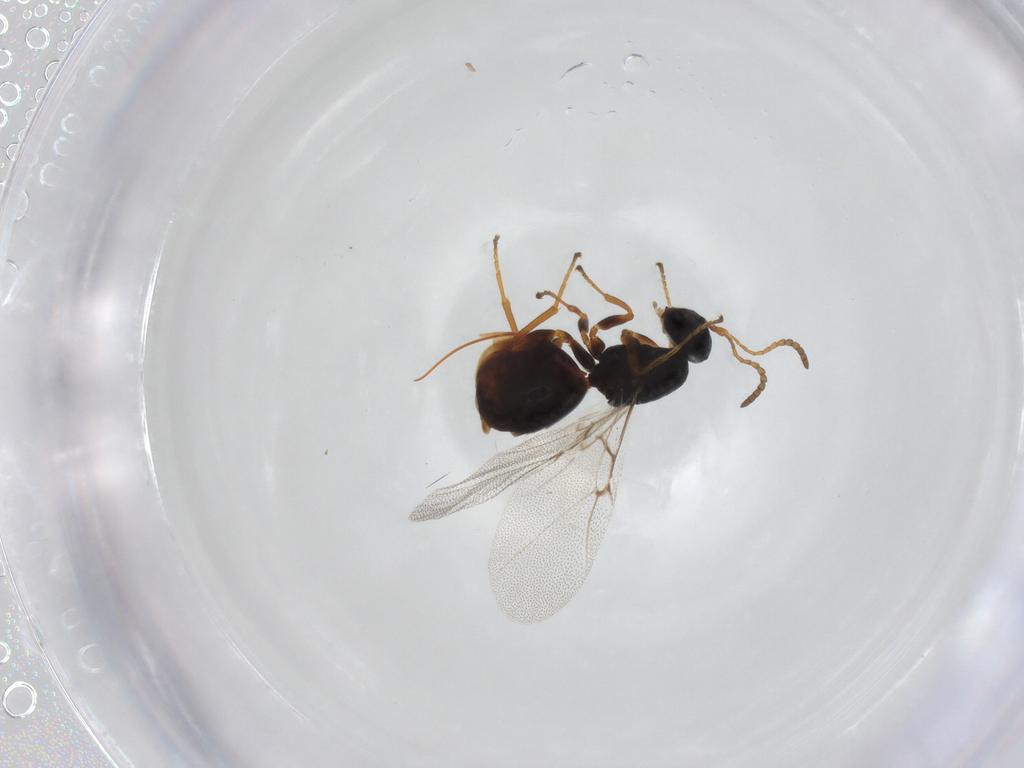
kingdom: Animalia
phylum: Arthropoda
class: Insecta
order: Hymenoptera
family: Cynipidae
